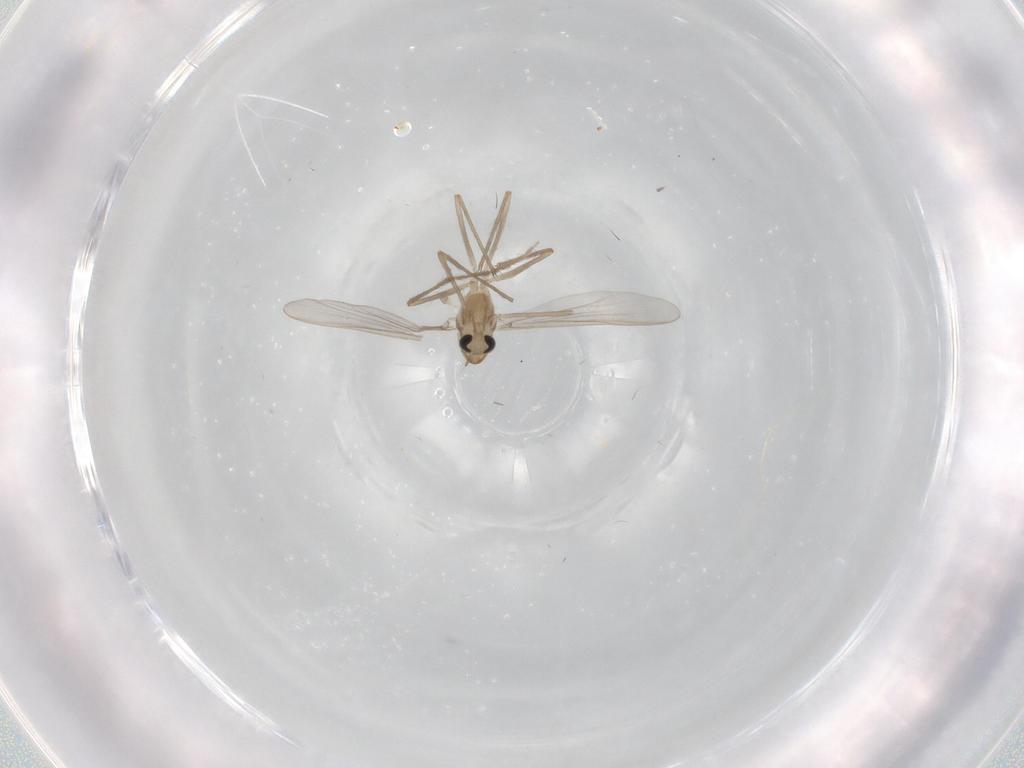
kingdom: Animalia
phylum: Arthropoda
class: Insecta
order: Diptera
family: Chironomidae
